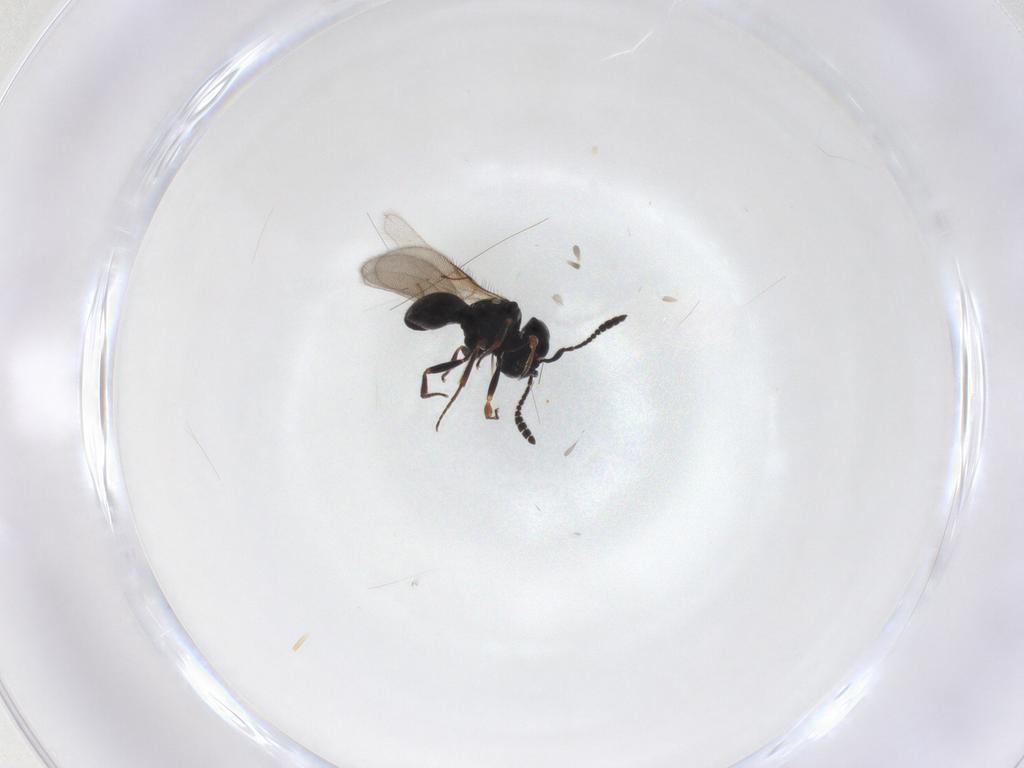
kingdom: Animalia
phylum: Arthropoda
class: Insecta
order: Hymenoptera
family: Scelionidae
